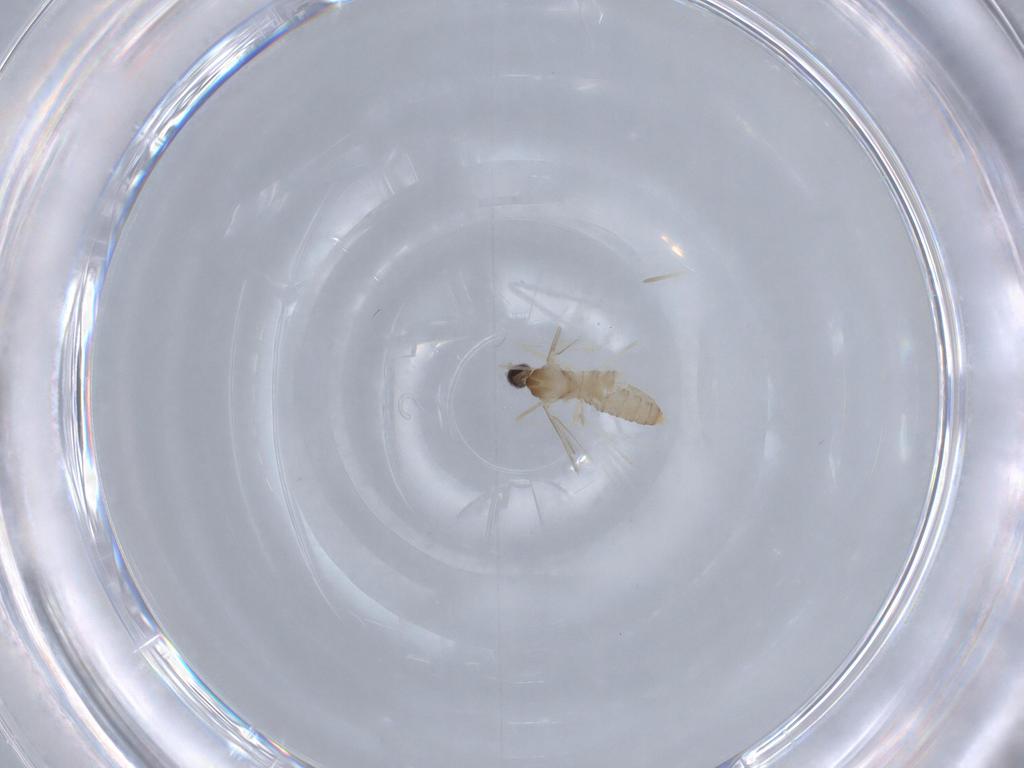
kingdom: Animalia
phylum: Arthropoda
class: Insecta
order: Diptera
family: Cecidomyiidae
